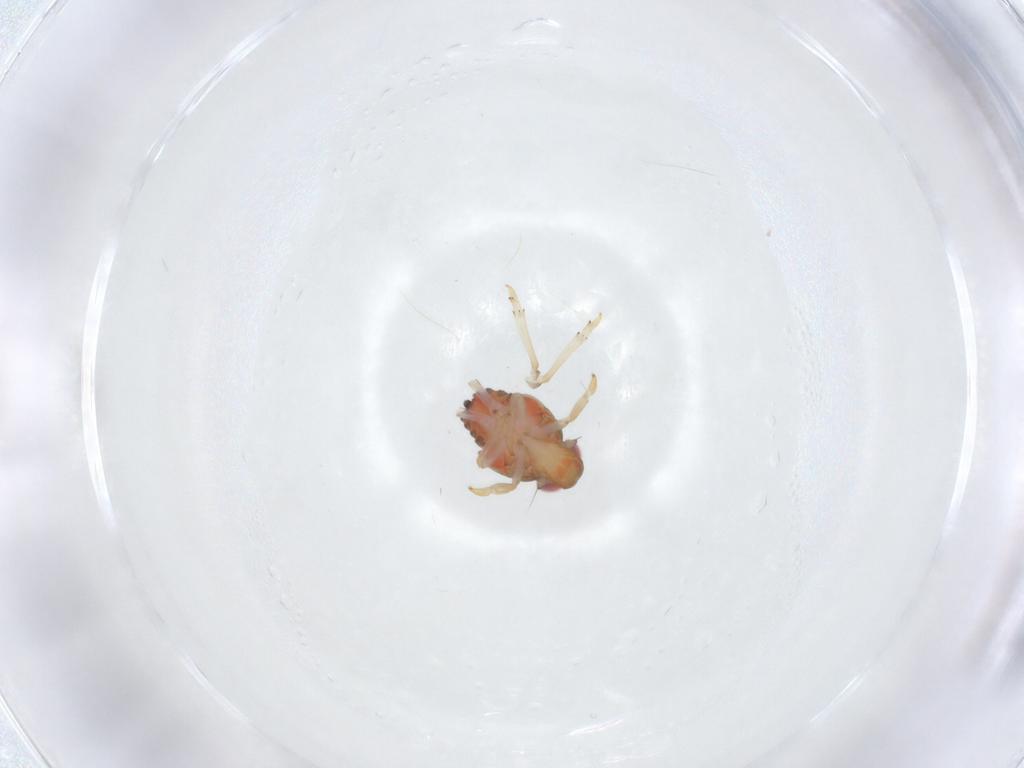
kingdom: Animalia
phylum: Arthropoda
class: Insecta
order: Hemiptera
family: Issidae
